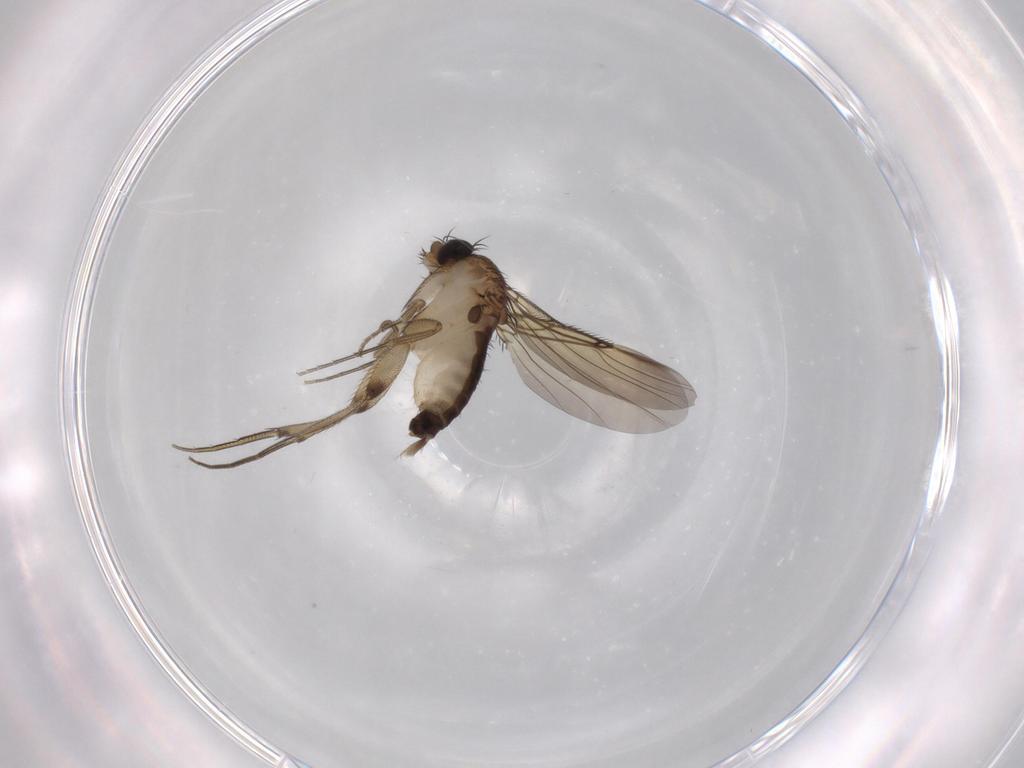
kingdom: Animalia
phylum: Arthropoda
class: Insecta
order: Diptera
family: Phoridae
